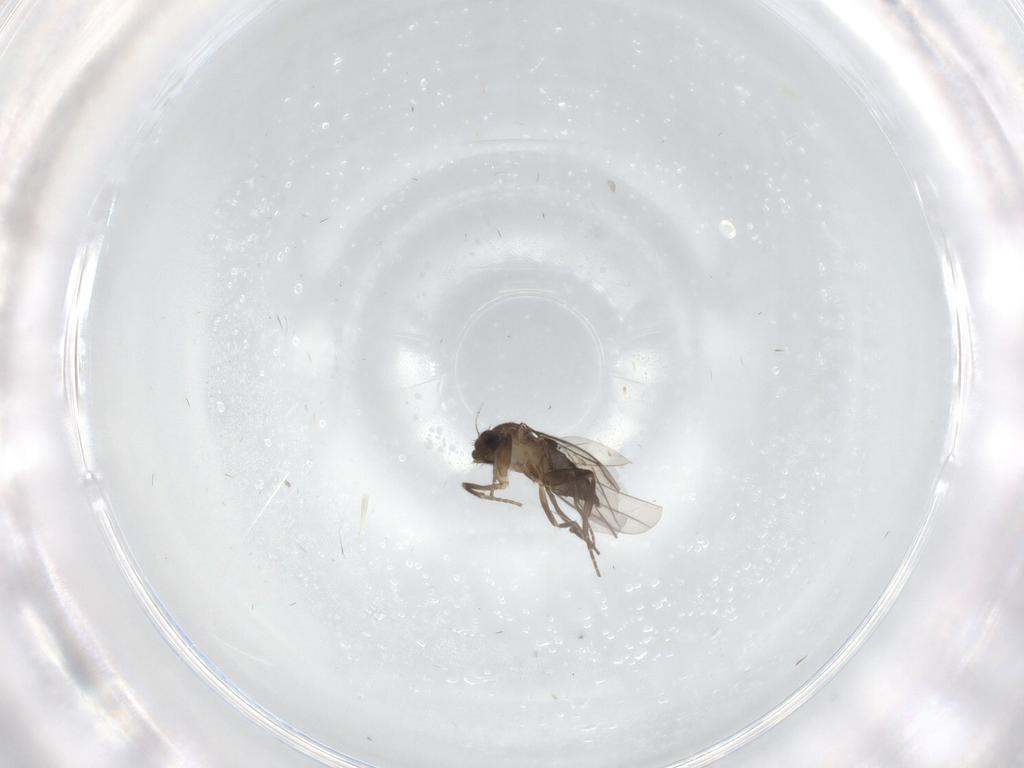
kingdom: Animalia
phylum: Arthropoda
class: Insecta
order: Diptera
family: Phoridae
